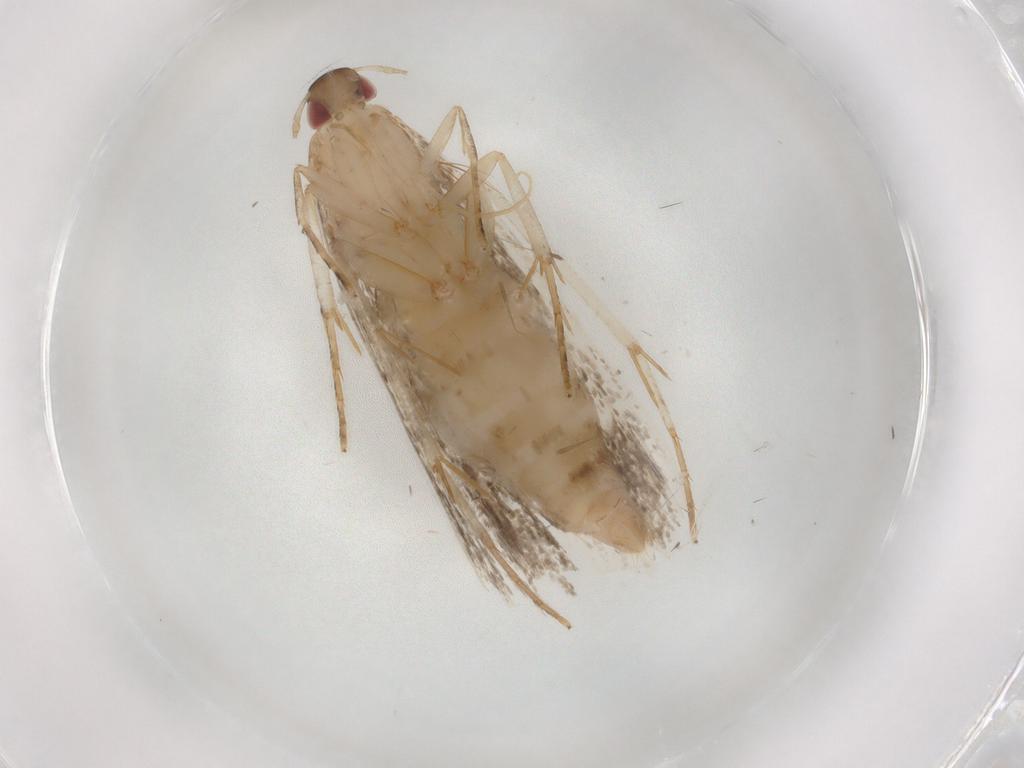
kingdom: Animalia
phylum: Arthropoda
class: Insecta
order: Lepidoptera
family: Gelechiidae
